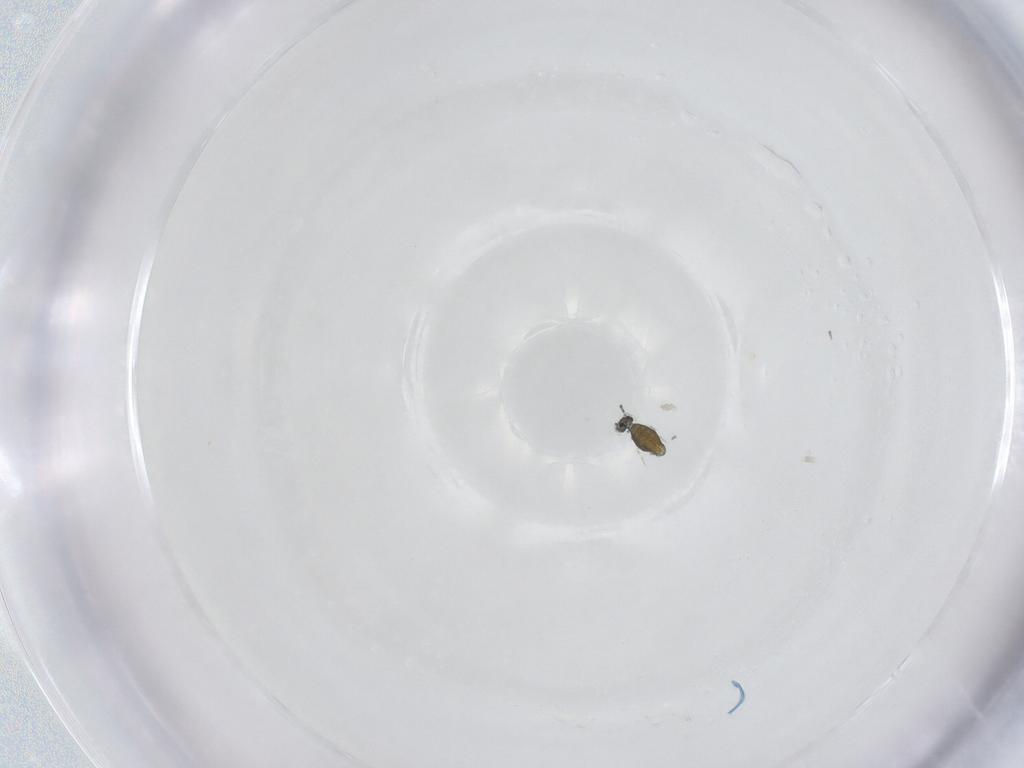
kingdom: Animalia
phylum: Arthropoda
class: Collembola
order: Symphypleona
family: Katiannidae
